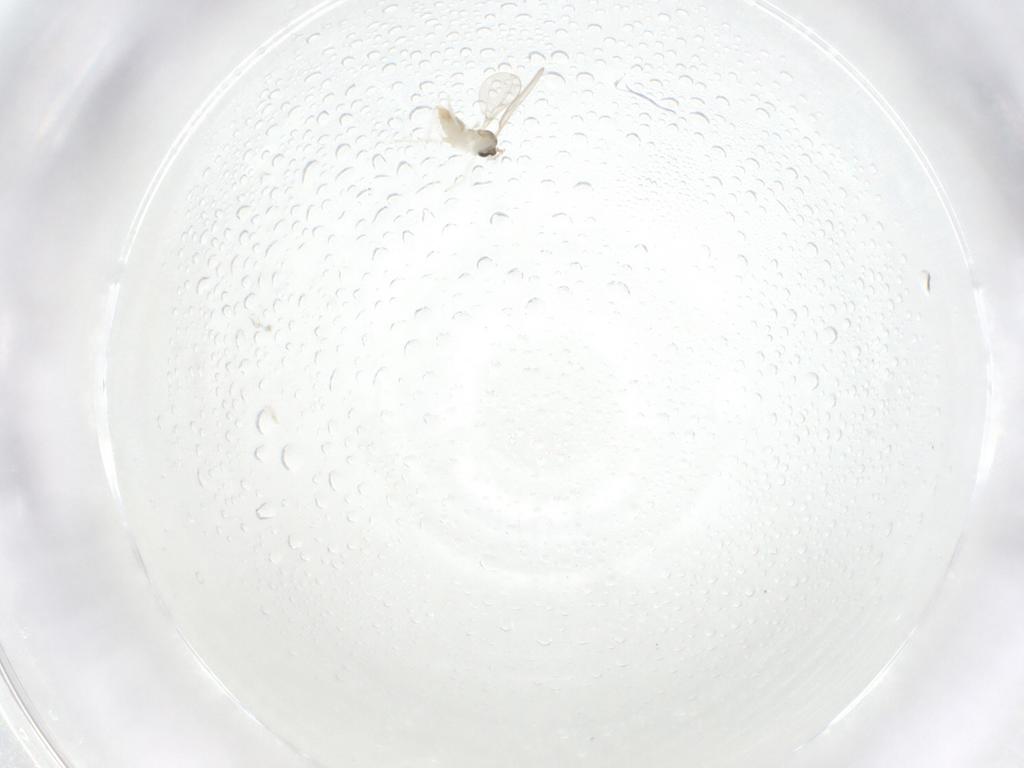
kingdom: Animalia
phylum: Arthropoda
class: Insecta
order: Diptera
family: Cecidomyiidae
